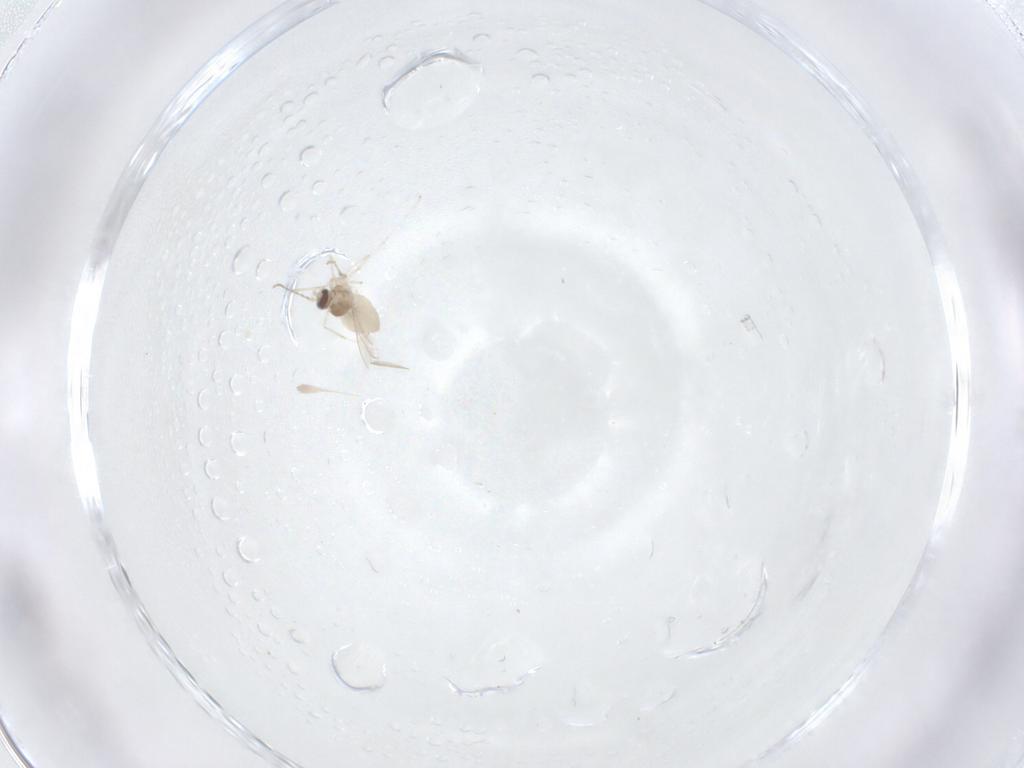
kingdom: Animalia
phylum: Arthropoda
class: Insecta
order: Diptera
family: Ceratopogonidae
